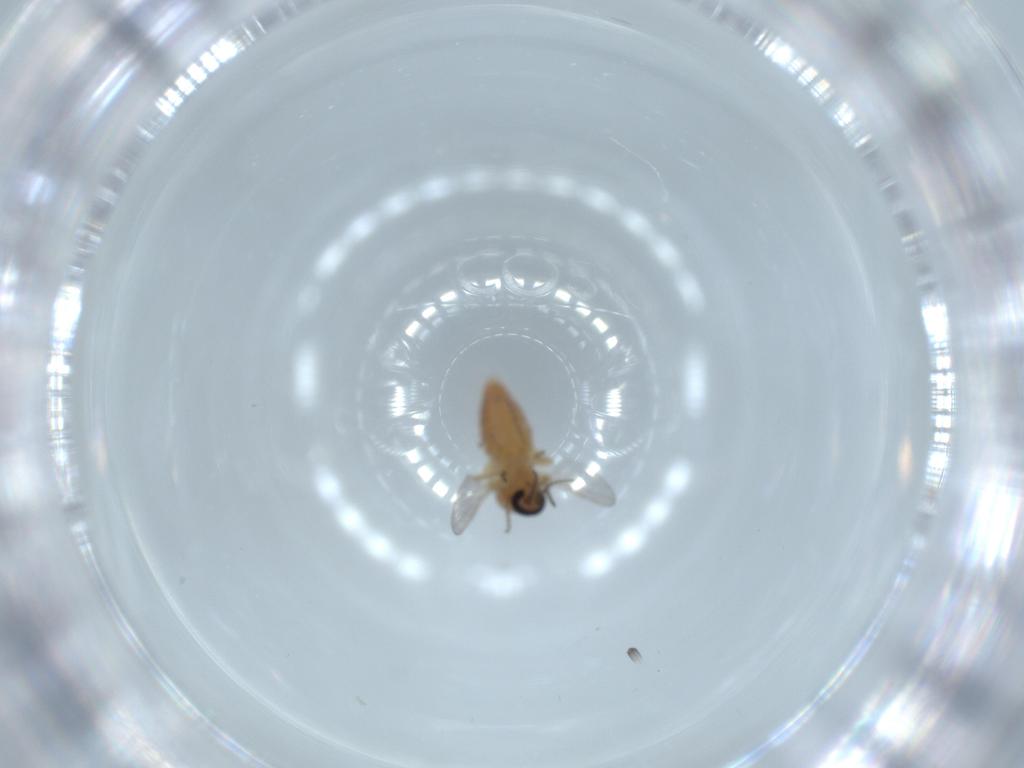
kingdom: Animalia
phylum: Arthropoda
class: Insecta
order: Diptera
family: Ceratopogonidae
